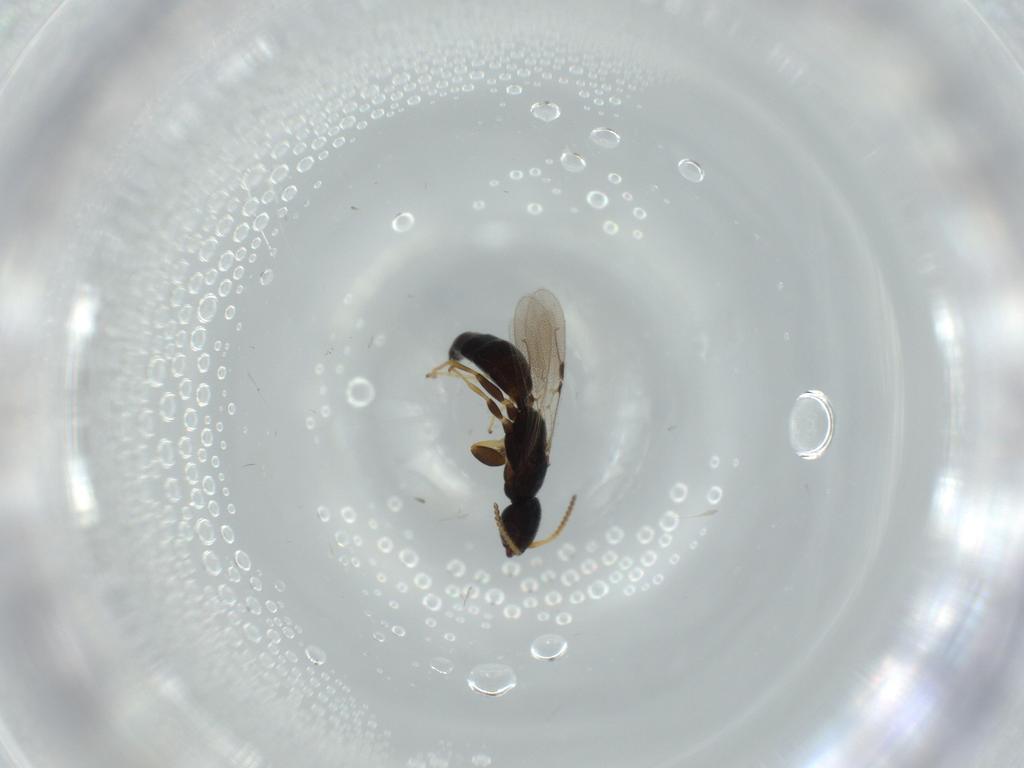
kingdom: Animalia
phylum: Arthropoda
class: Insecta
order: Hymenoptera
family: Bethylidae
